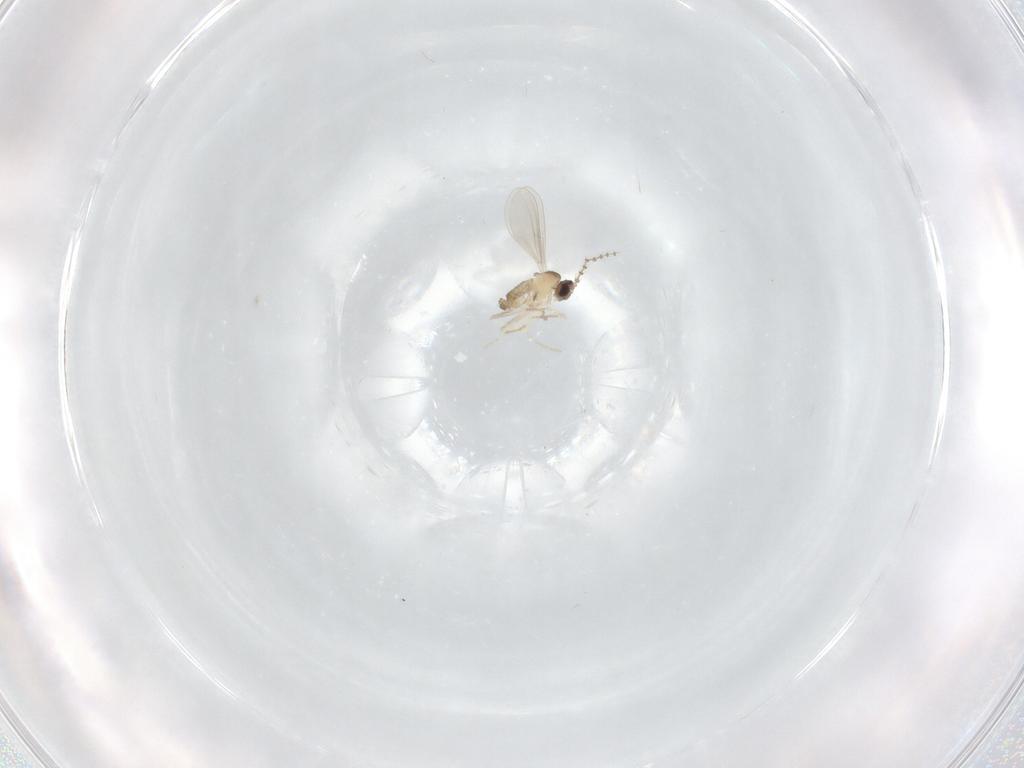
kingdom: Animalia
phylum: Arthropoda
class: Insecta
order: Diptera
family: Cecidomyiidae
